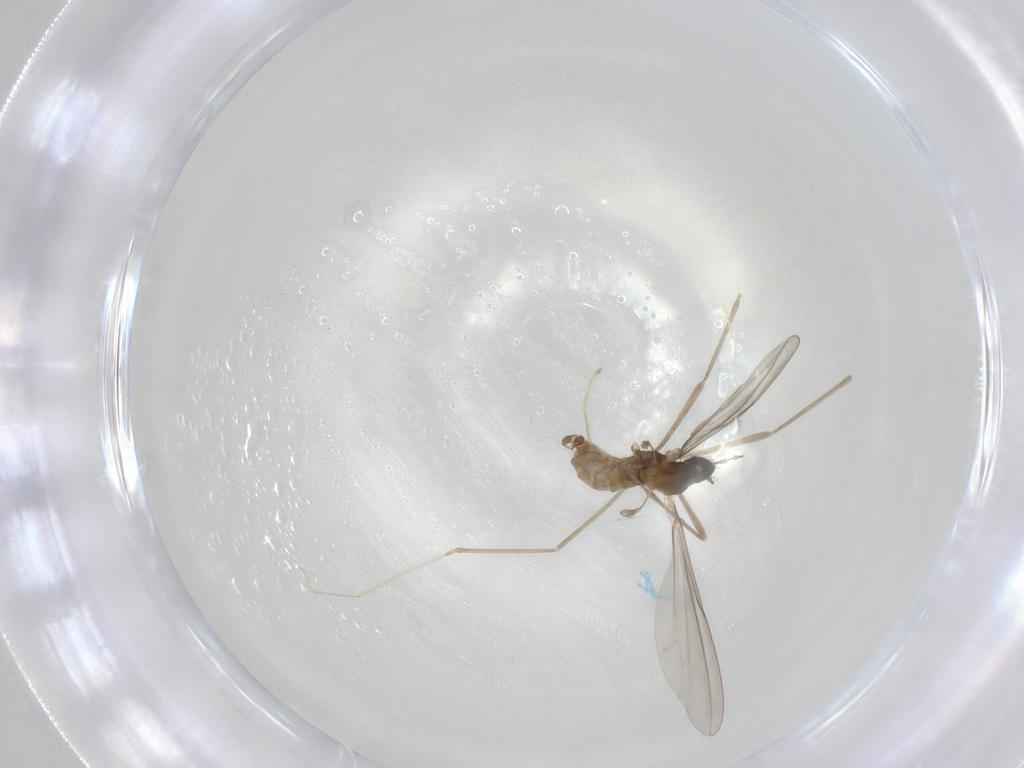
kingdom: Animalia
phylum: Arthropoda
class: Insecta
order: Diptera
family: Cecidomyiidae
